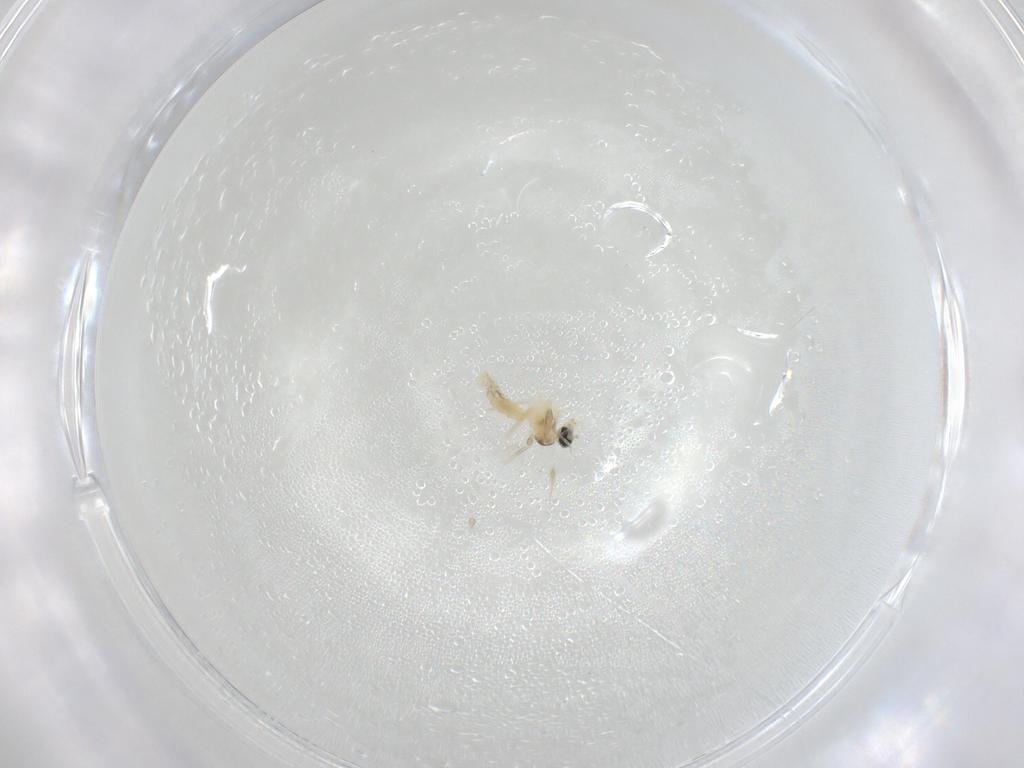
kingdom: Animalia
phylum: Arthropoda
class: Insecta
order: Diptera
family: Cecidomyiidae
